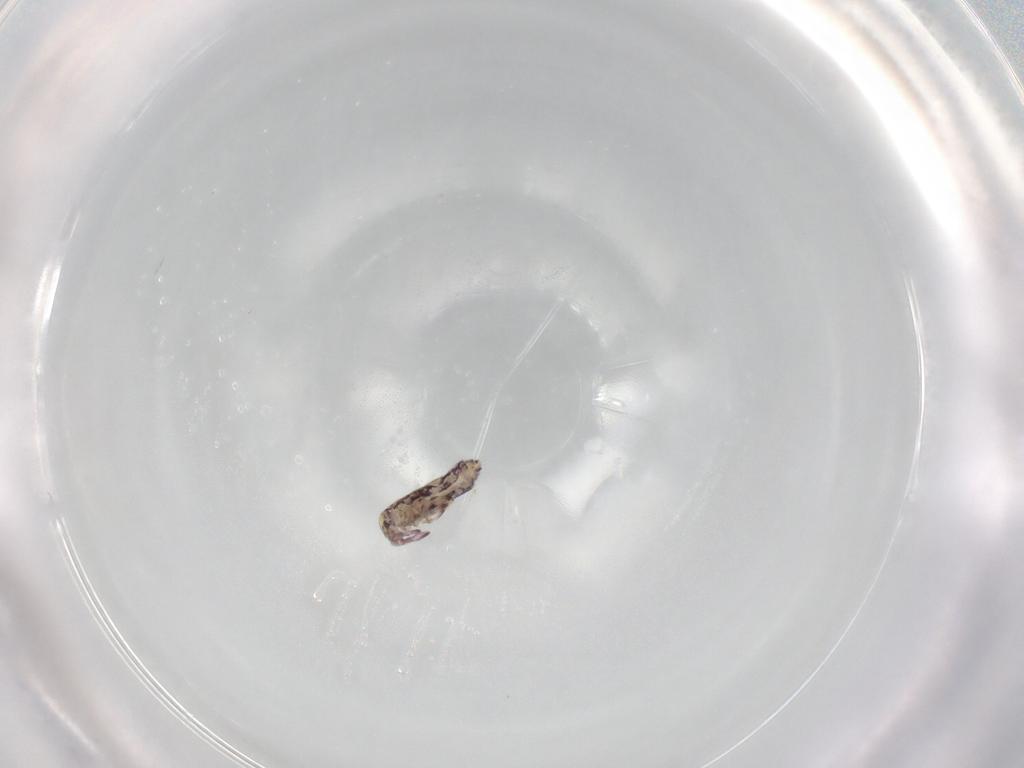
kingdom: Animalia
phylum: Arthropoda
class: Collembola
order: Entomobryomorpha
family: Entomobryidae
